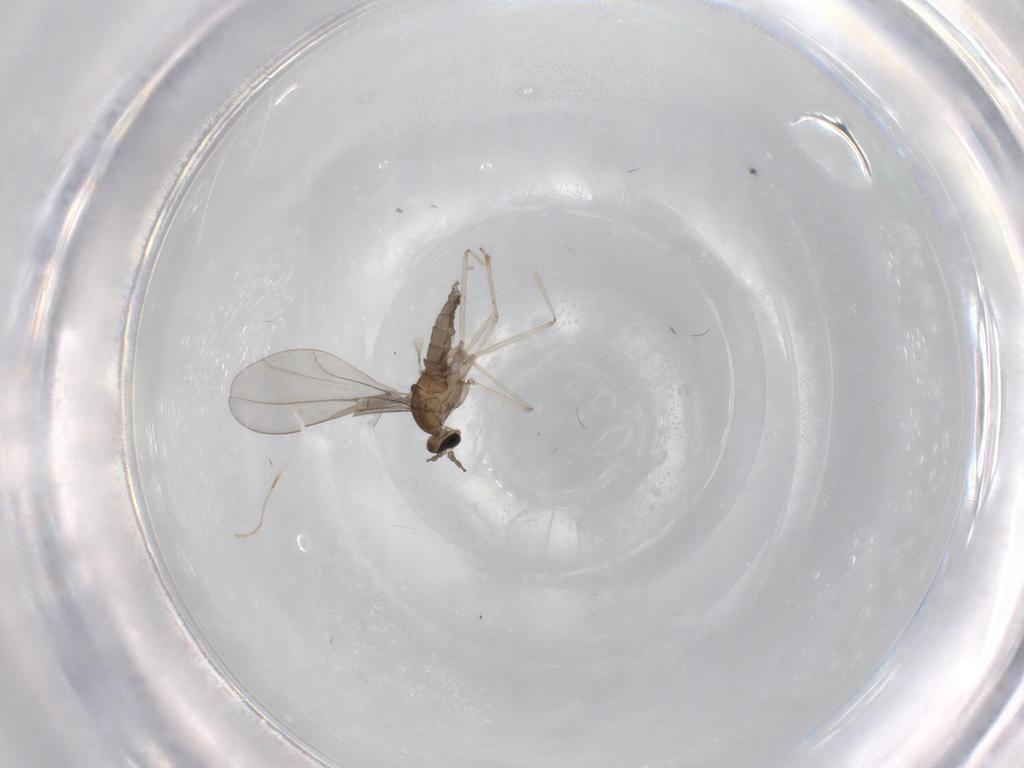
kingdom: Animalia
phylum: Arthropoda
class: Insecta
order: Diptera
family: Cecidomyiidae
